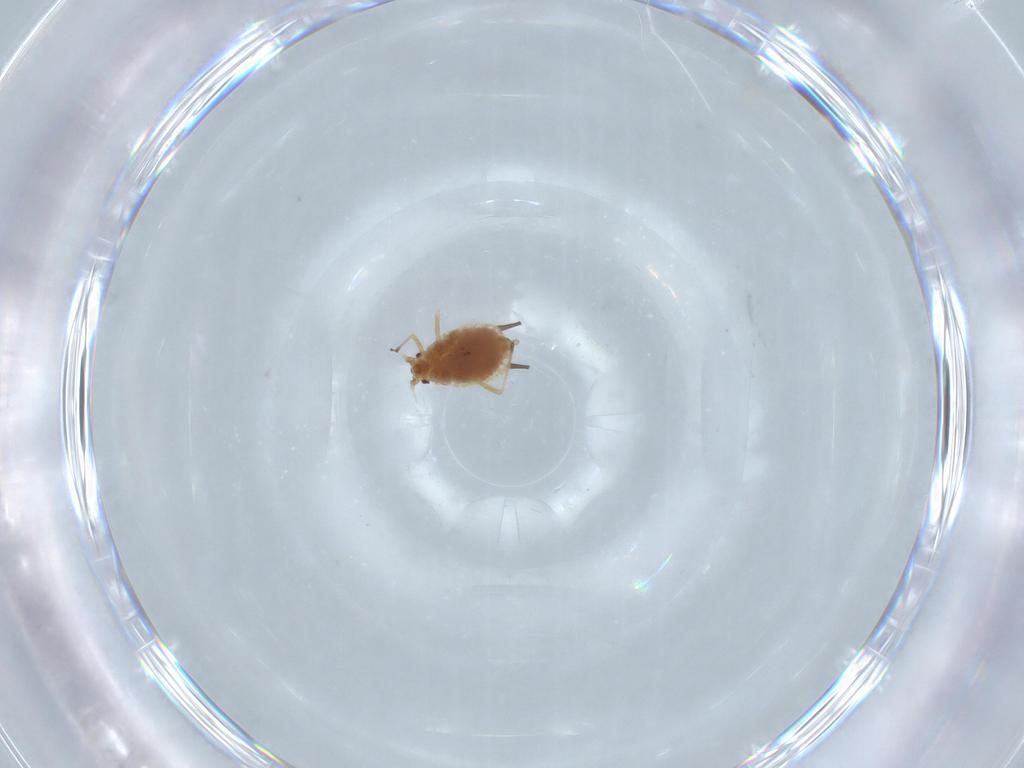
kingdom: Animalia
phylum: Arthropoda
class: Insecta
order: Hemiptera
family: Aphididae
